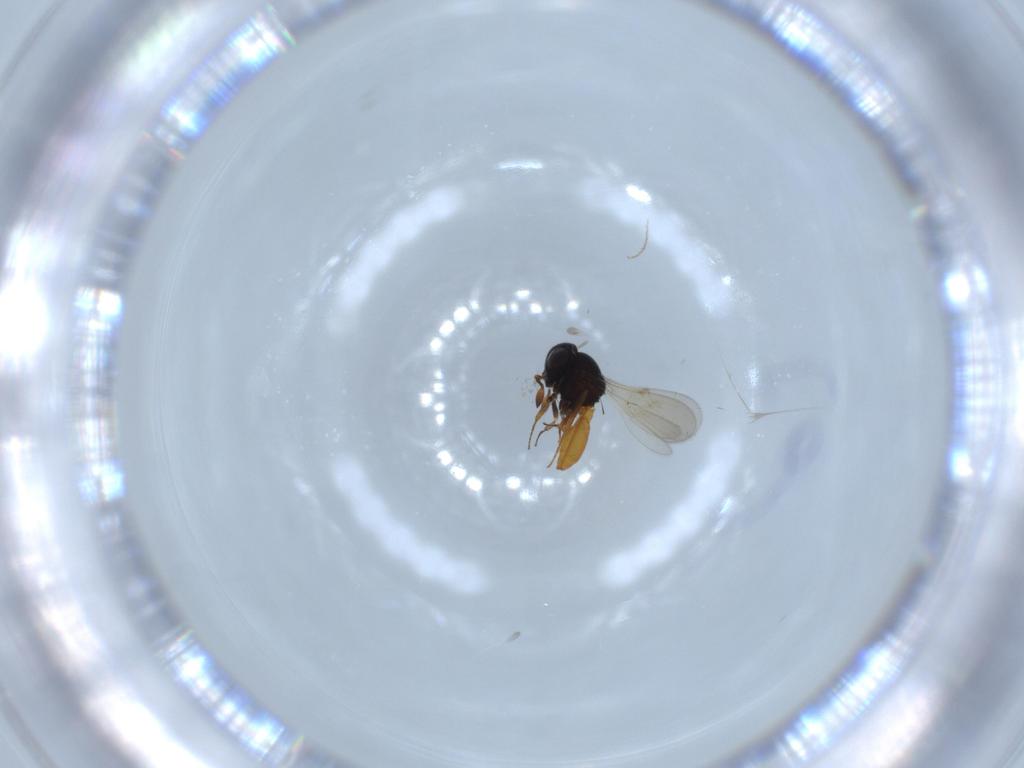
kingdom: Animalia
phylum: Arthropoda
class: Insecta
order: Hymenoptera
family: Scelionidae
